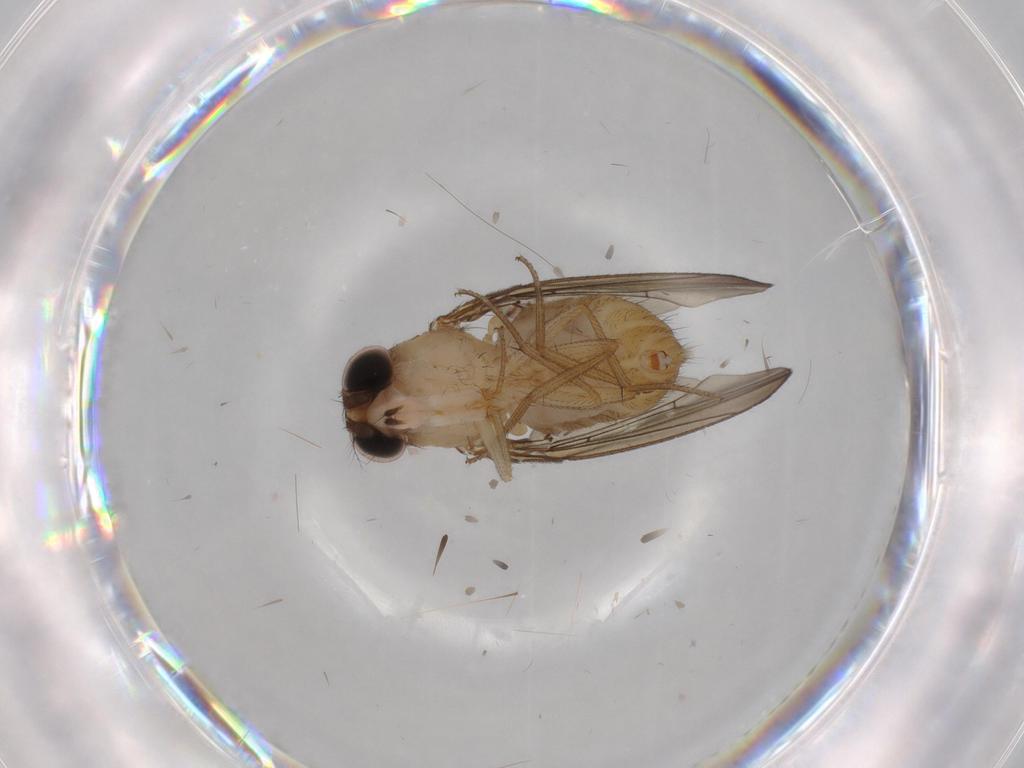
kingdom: Animalia
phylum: Arthropoda
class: Insecta
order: Diptera
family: Drosophilidae
